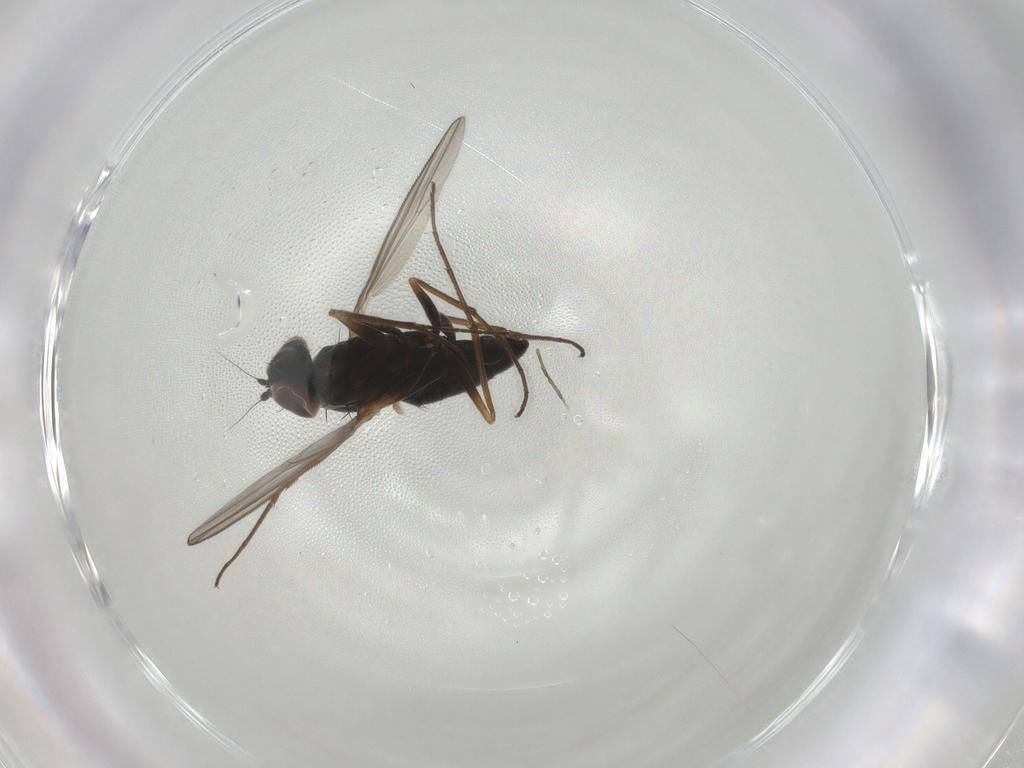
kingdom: Animalia
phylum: Arthropoda
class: Insecta
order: Diptera
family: Dolichopodidae
